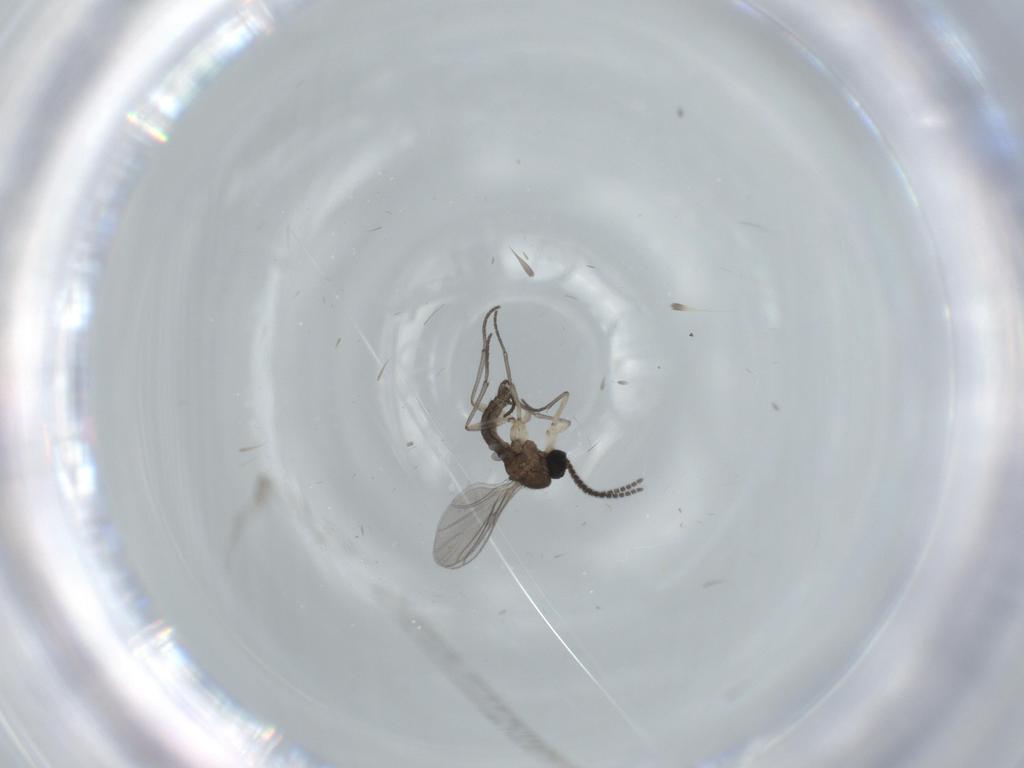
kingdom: Animalia
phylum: Arthropoda
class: Insecta
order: Diptera
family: Sciaridae
